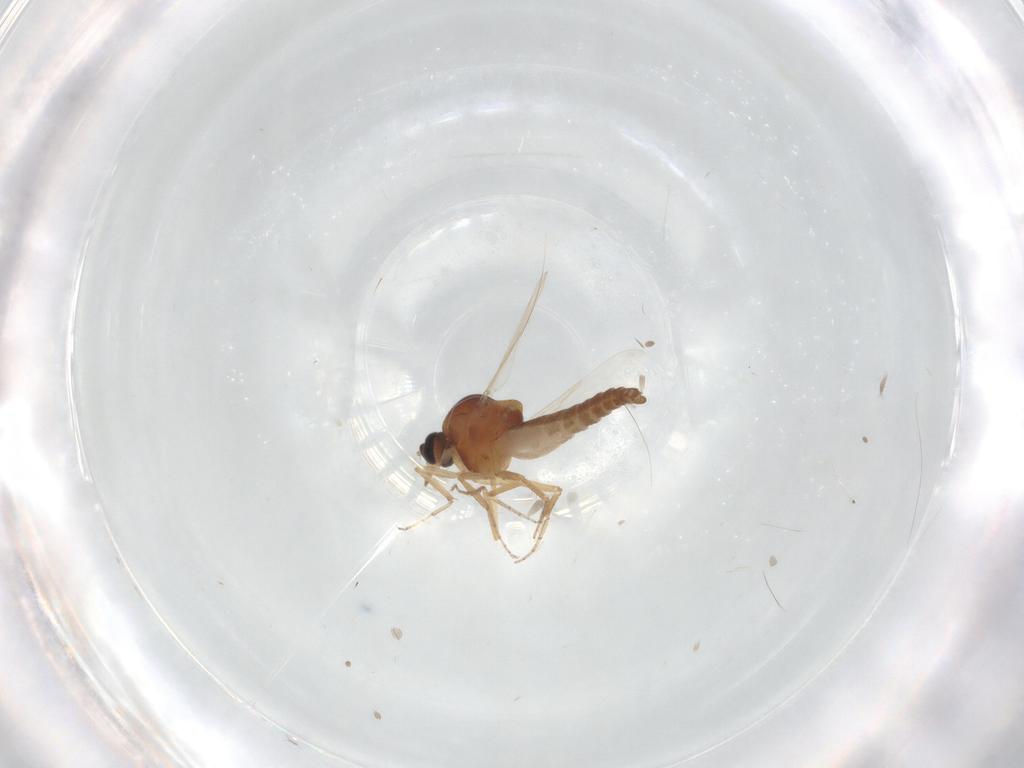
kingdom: Animalia
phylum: Arthropoda
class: Insecta
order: Diptera
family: Ceratopogonidae
